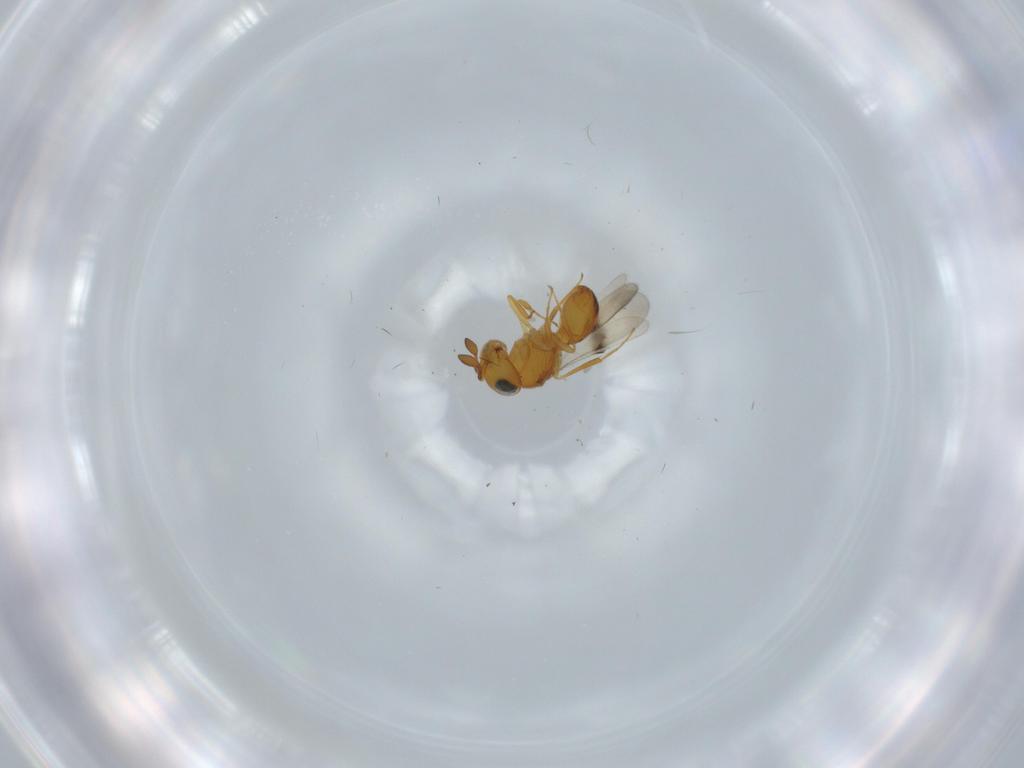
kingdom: Animalia
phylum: Arthropoda
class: Insecta
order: Hymenoptera
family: Scelionidae
